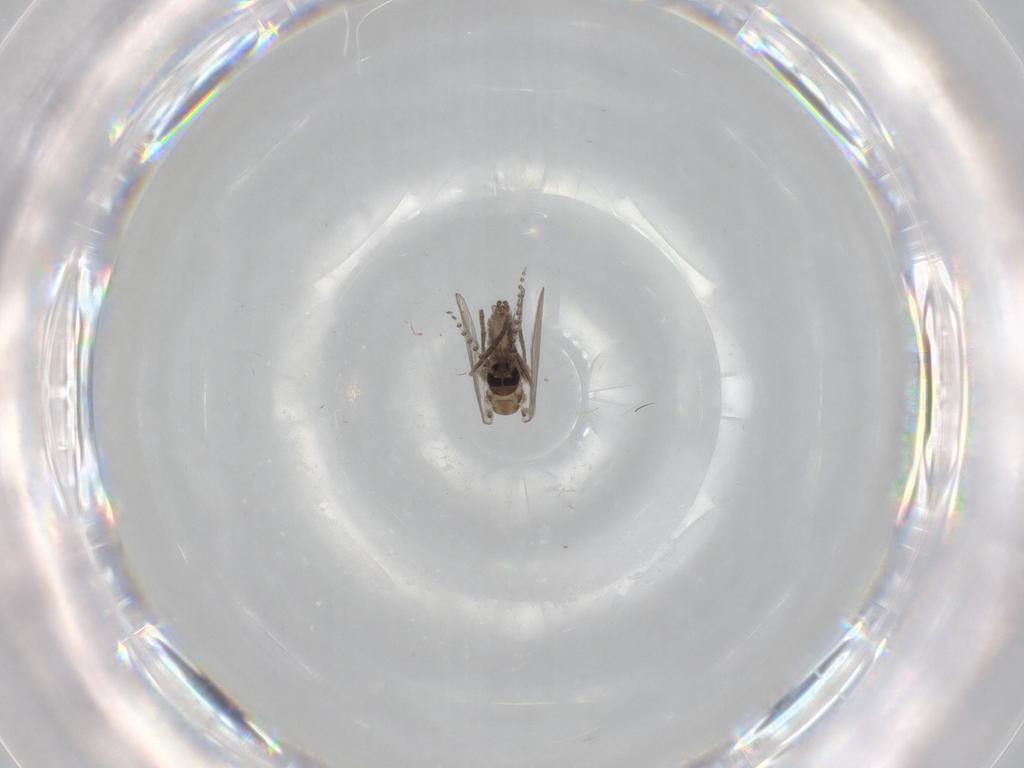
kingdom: Animalia
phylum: Arthropoda
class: Insecta
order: Diptera
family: Psychodidae
